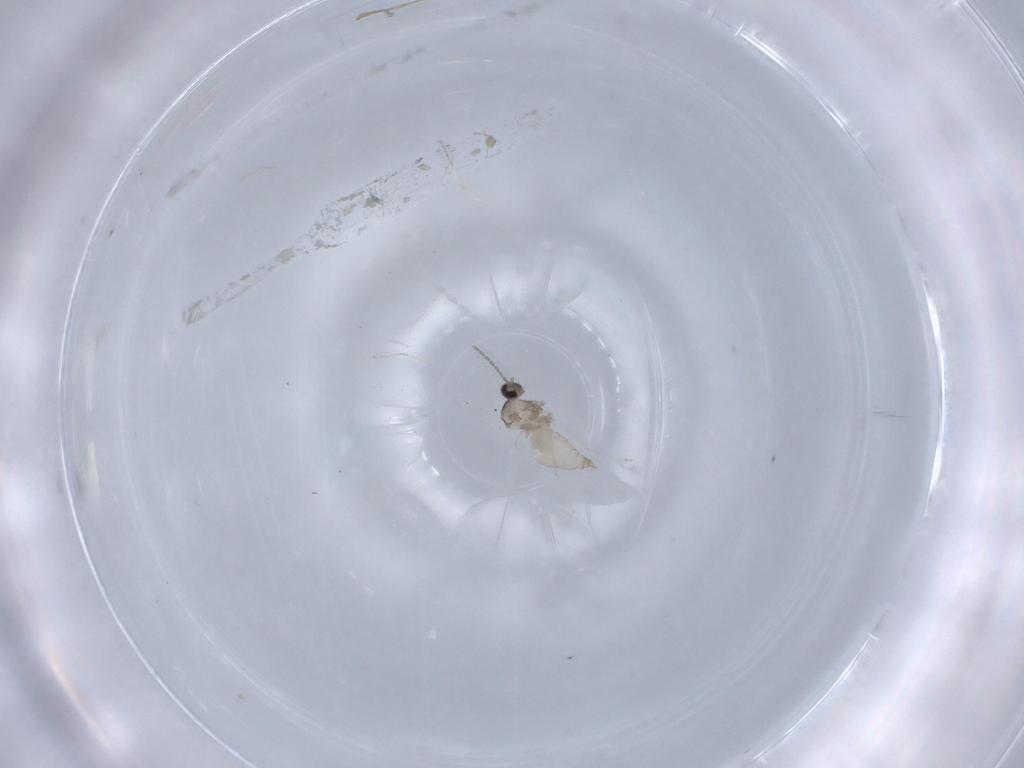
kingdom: Animalia
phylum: Arthropoda
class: Insecta
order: Diptera
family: Cecidomyiidae
